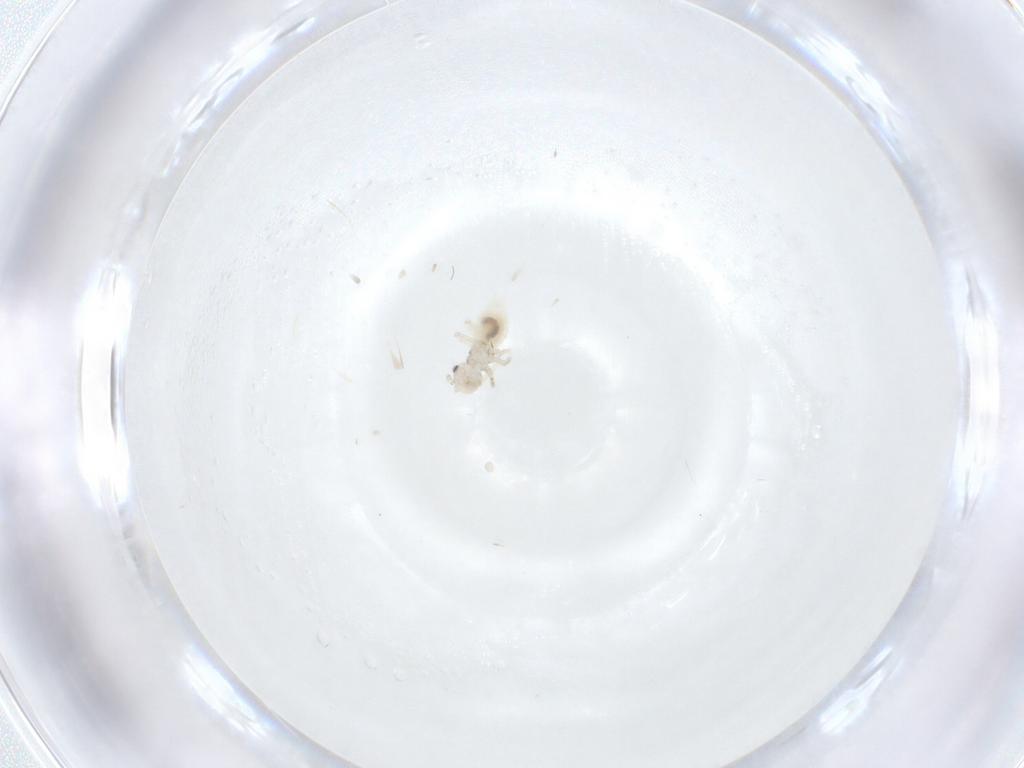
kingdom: Animalia
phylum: Arthropoda
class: Insecta
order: Psocodea
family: Amphipsocidae
